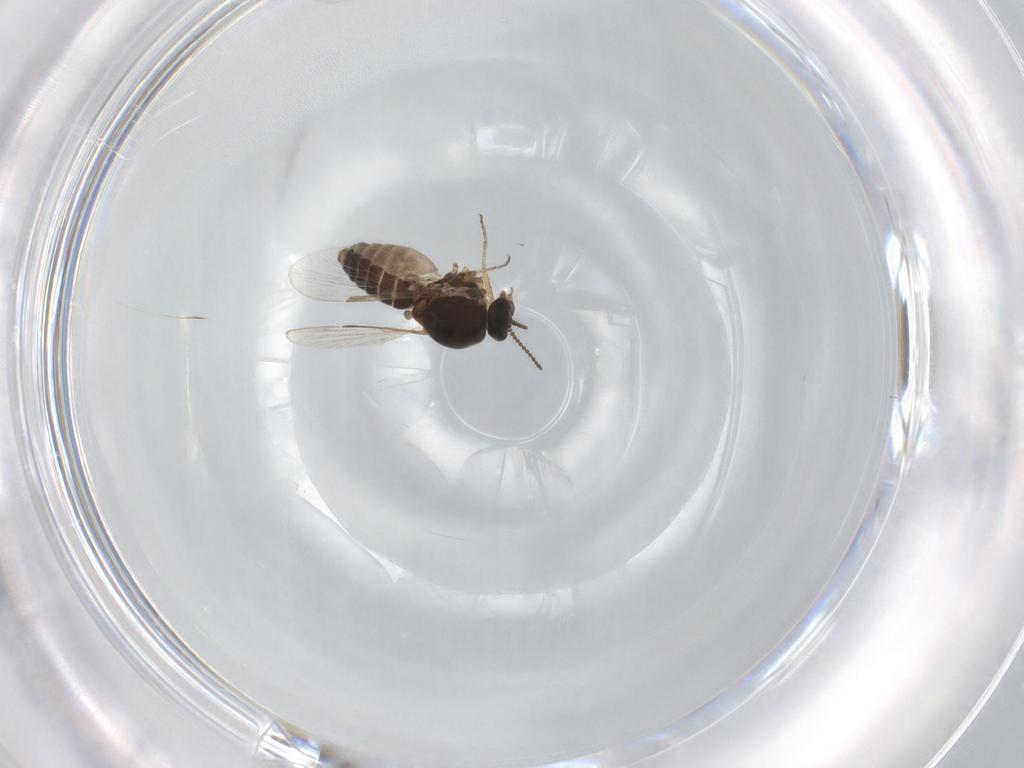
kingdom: Animalia
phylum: Arthropoda
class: Insecta
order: Diptera
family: Ceratopogonidae
